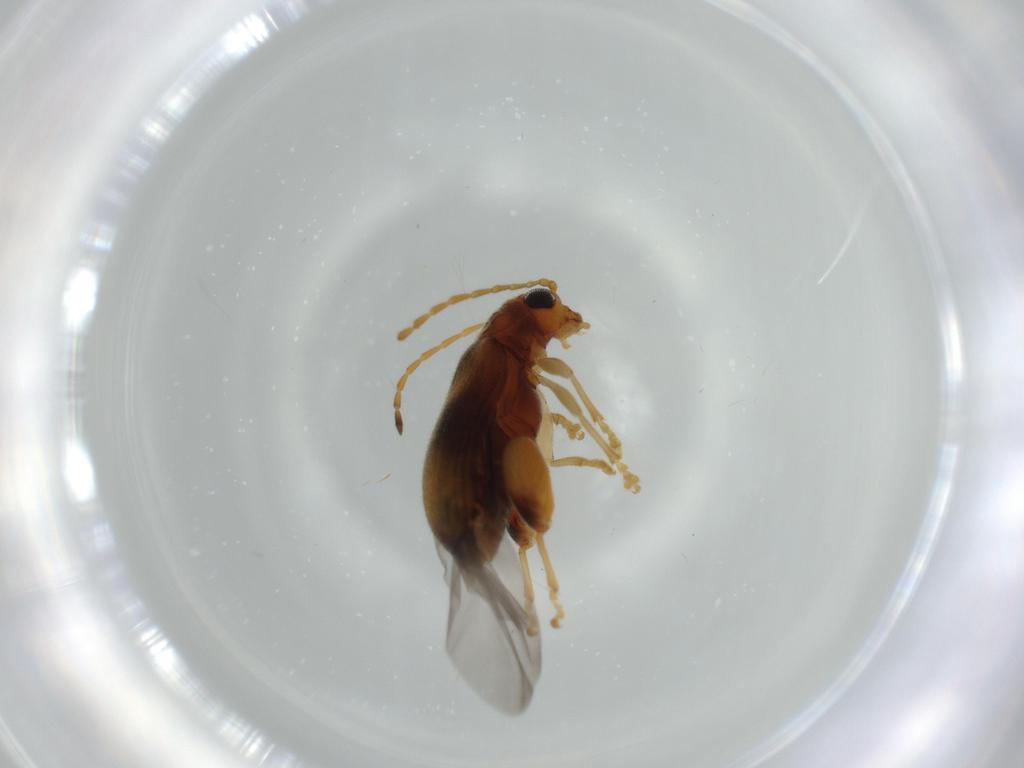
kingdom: Animalia
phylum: Arthropoda
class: Insecta
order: Coleoptera
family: Chrysomelidae
